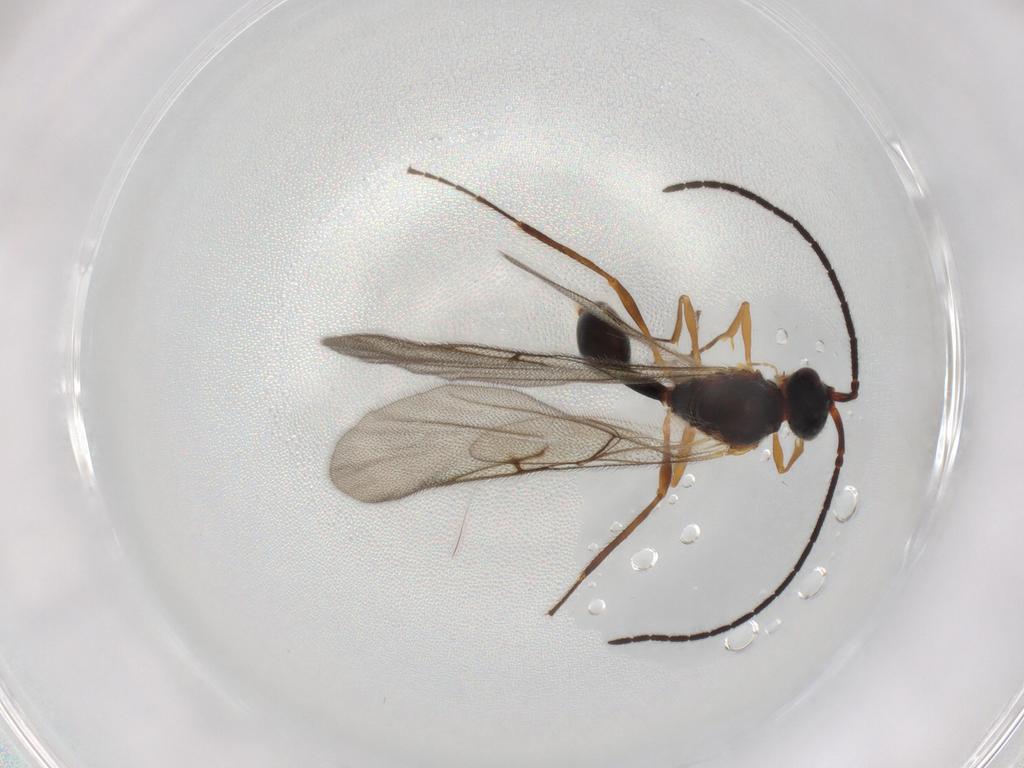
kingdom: Animalia
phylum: Arthropoda
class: Insecta
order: Hymenoptera
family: Diapriidae
